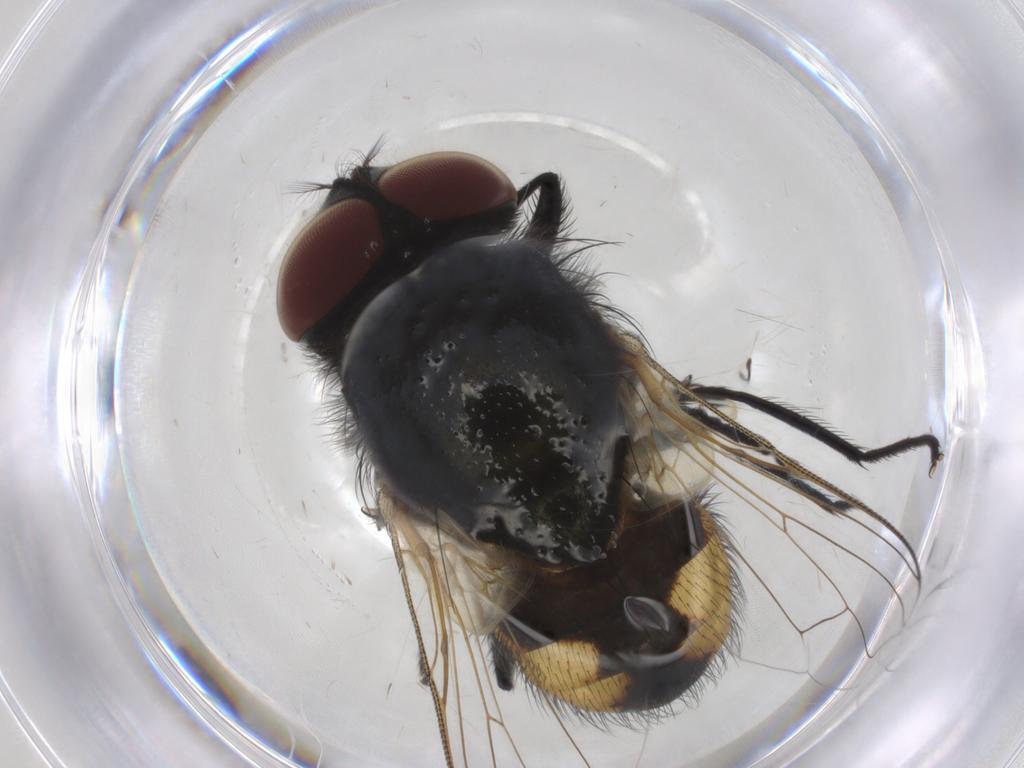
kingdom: Animalia
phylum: Arthropoda
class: Insecta
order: Diptera
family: Muscidae
